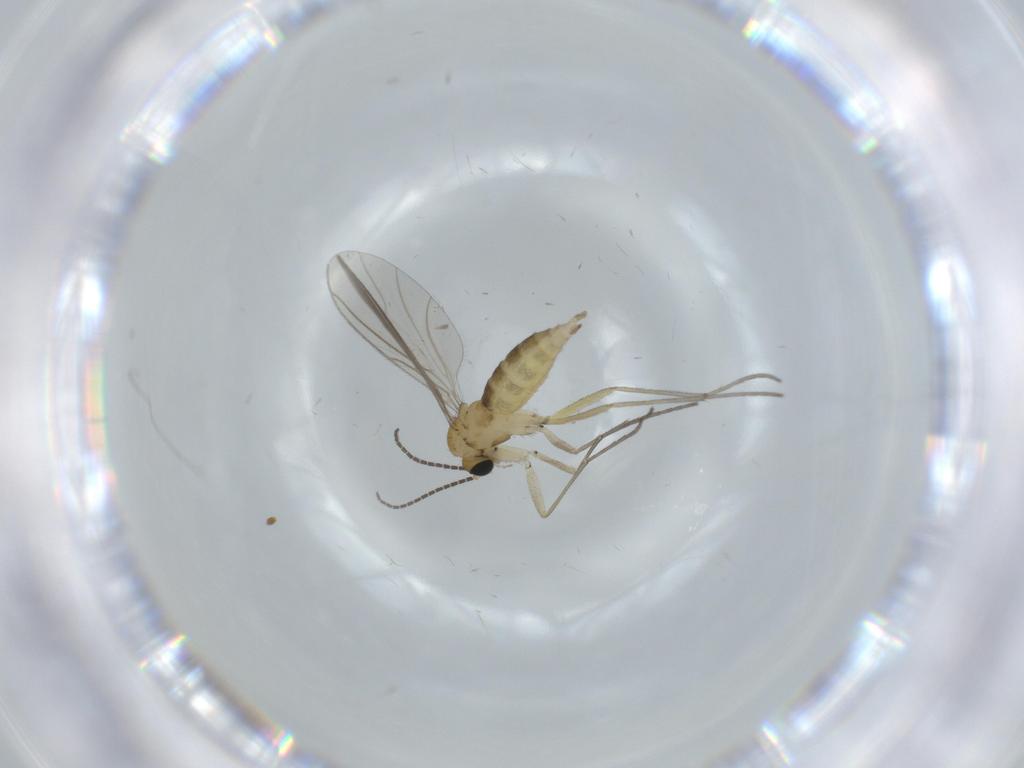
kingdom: Animalia
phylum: Arthropoda
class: Insecta
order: Diptera
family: Sciaridae
